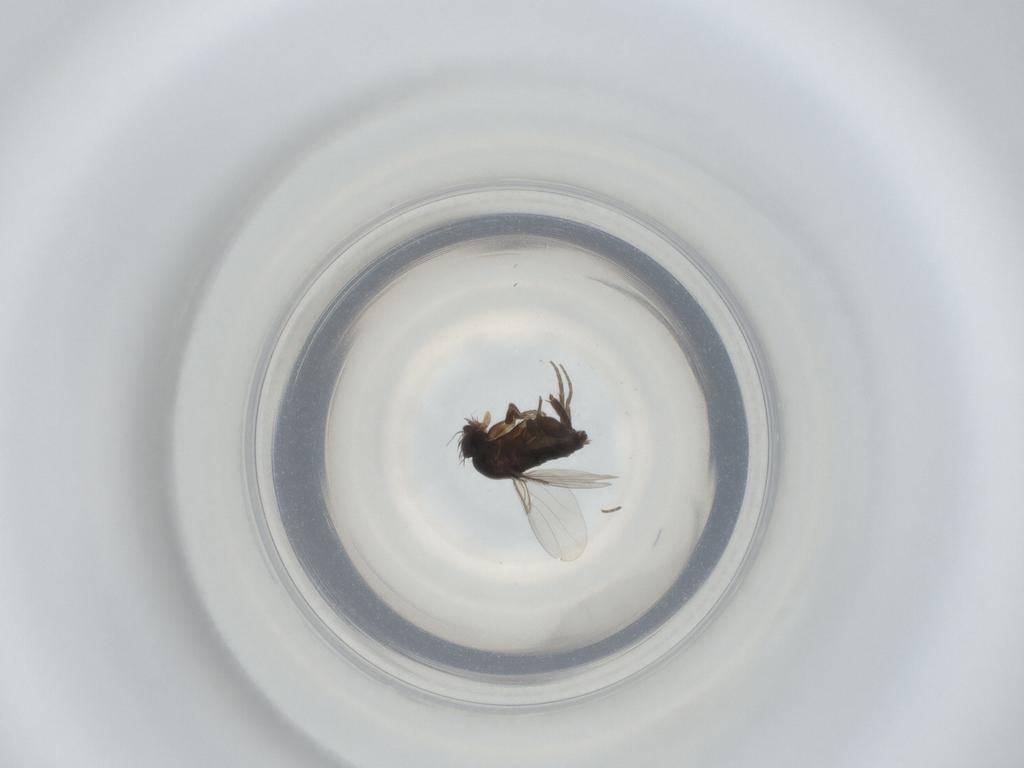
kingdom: Animalia
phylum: Arthropoda
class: Insecta
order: Diptera
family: Phoridae
